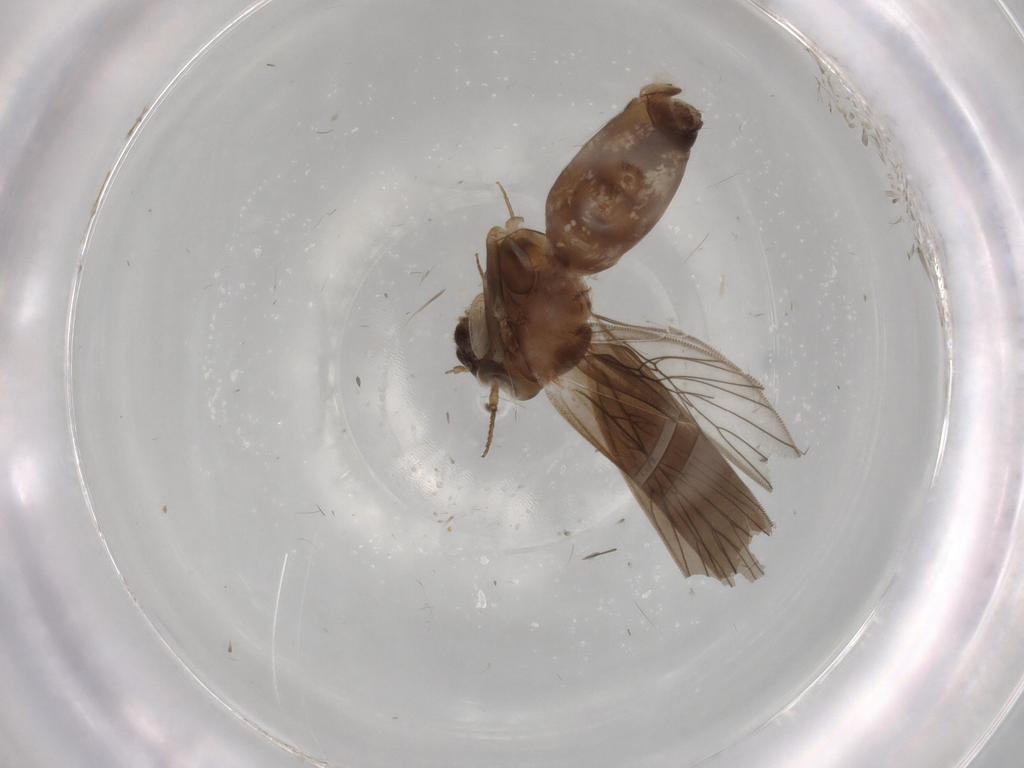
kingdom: Animalia
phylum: Arthropoda
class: Insecta
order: Psocodea
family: Lepidopsocidae
